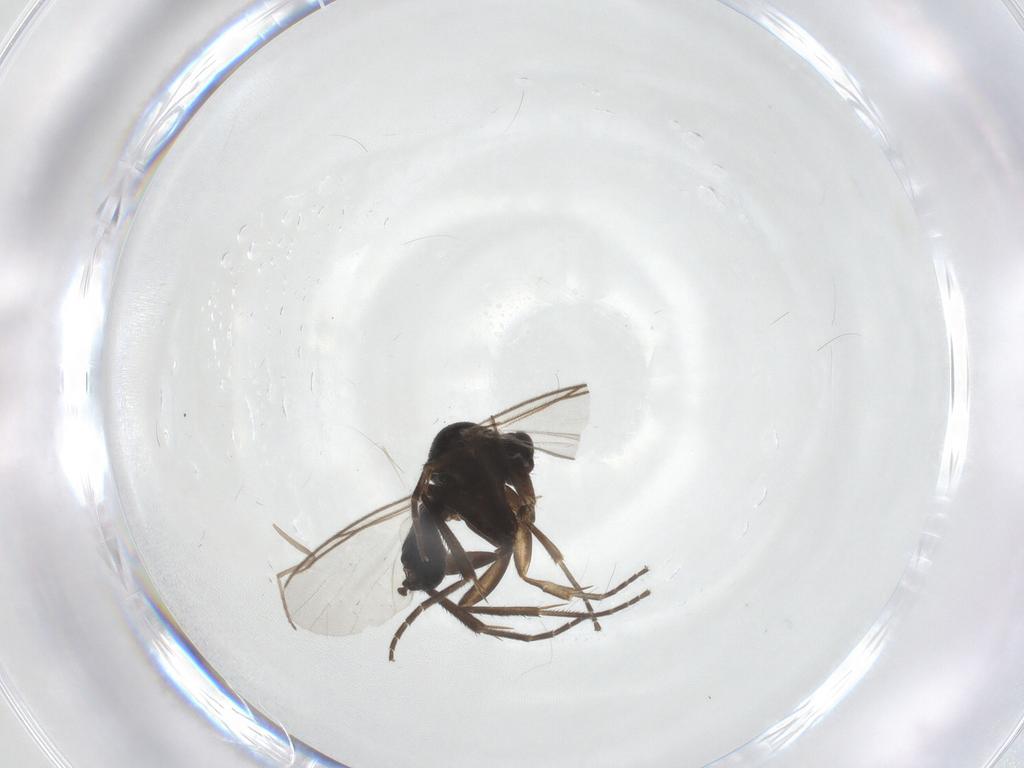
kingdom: Animalia
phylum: Arthropoda
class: Insecta
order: Diptera
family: Mycetophilidae
